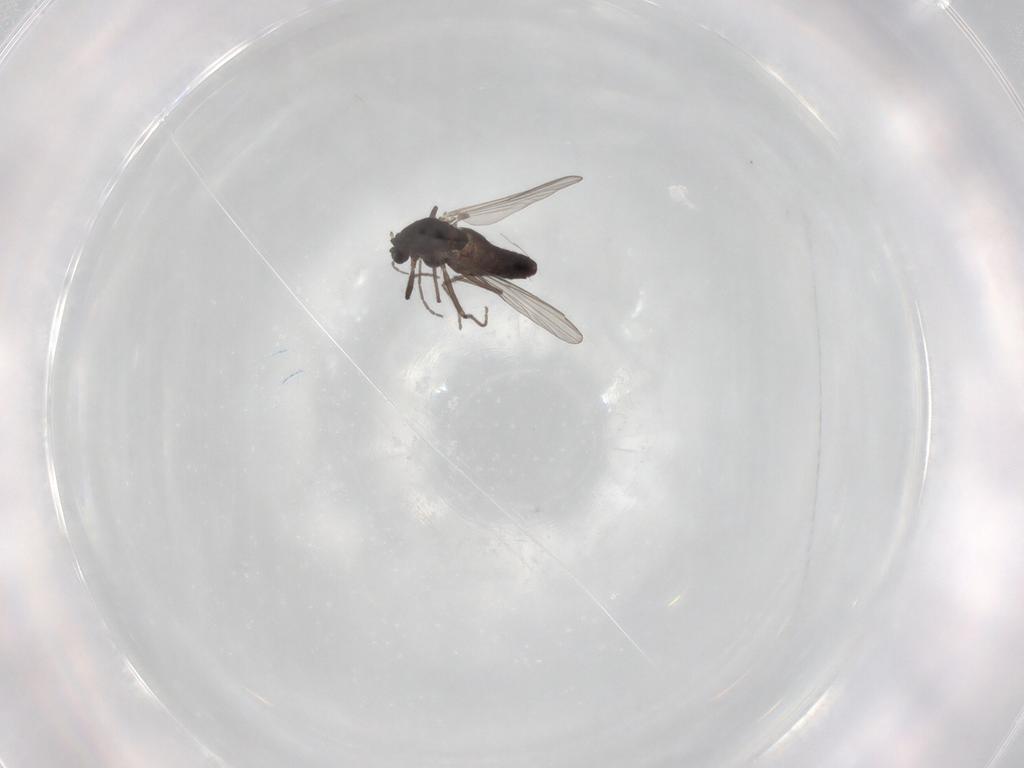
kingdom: Animalia
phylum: Arthropoda
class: Insecta
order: Diptera
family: Chironomidae
